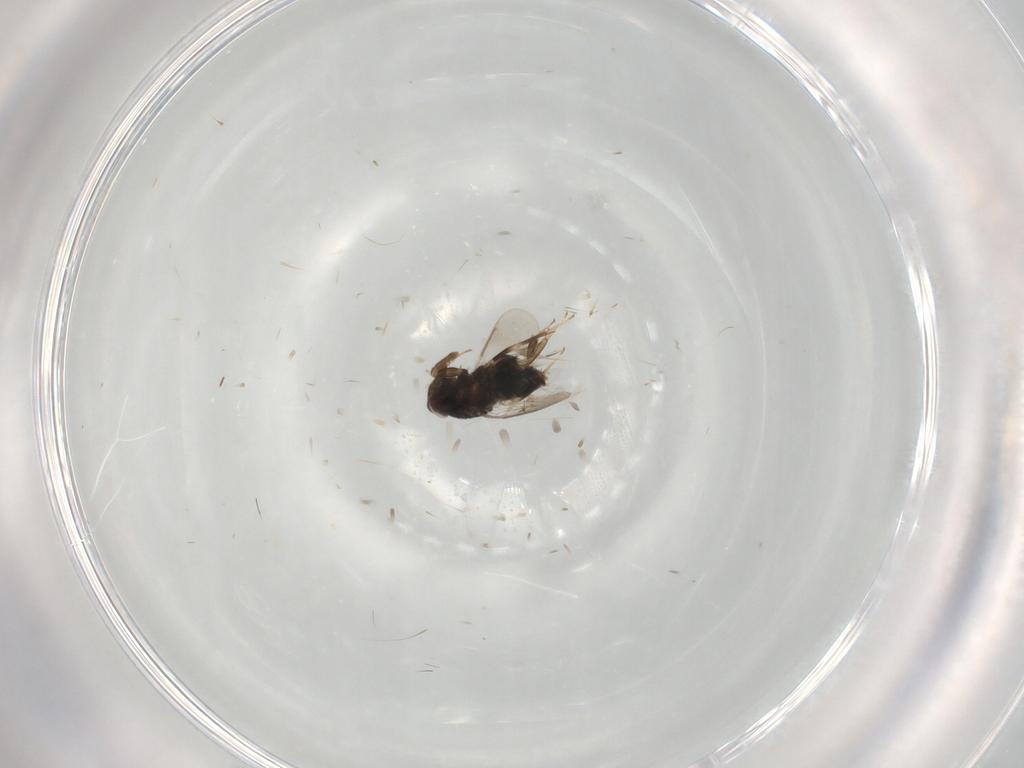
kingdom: Animalia
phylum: Arthropoda
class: Insecta
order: Hymenoptera
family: Aphelinidae
